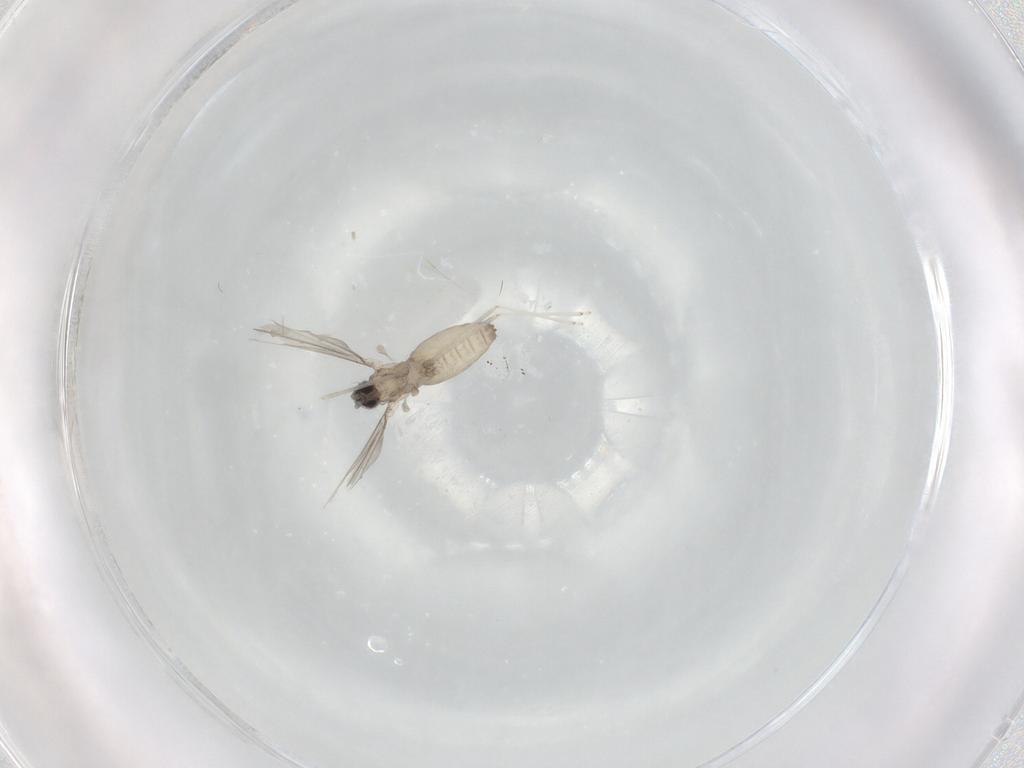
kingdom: Animalia
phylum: Arthropoda
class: Insecta
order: Diptera
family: Cecidomyiidae
